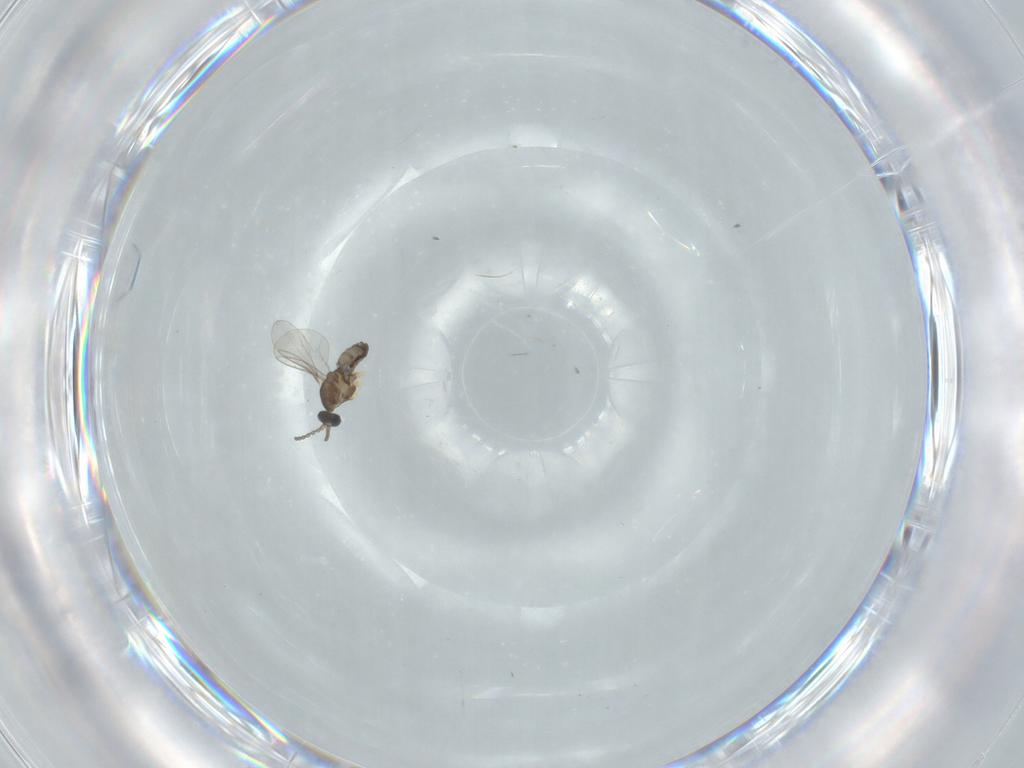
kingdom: Animalia
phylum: Arthropoda
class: Insecta
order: Diptera
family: Cecidomyiidae
